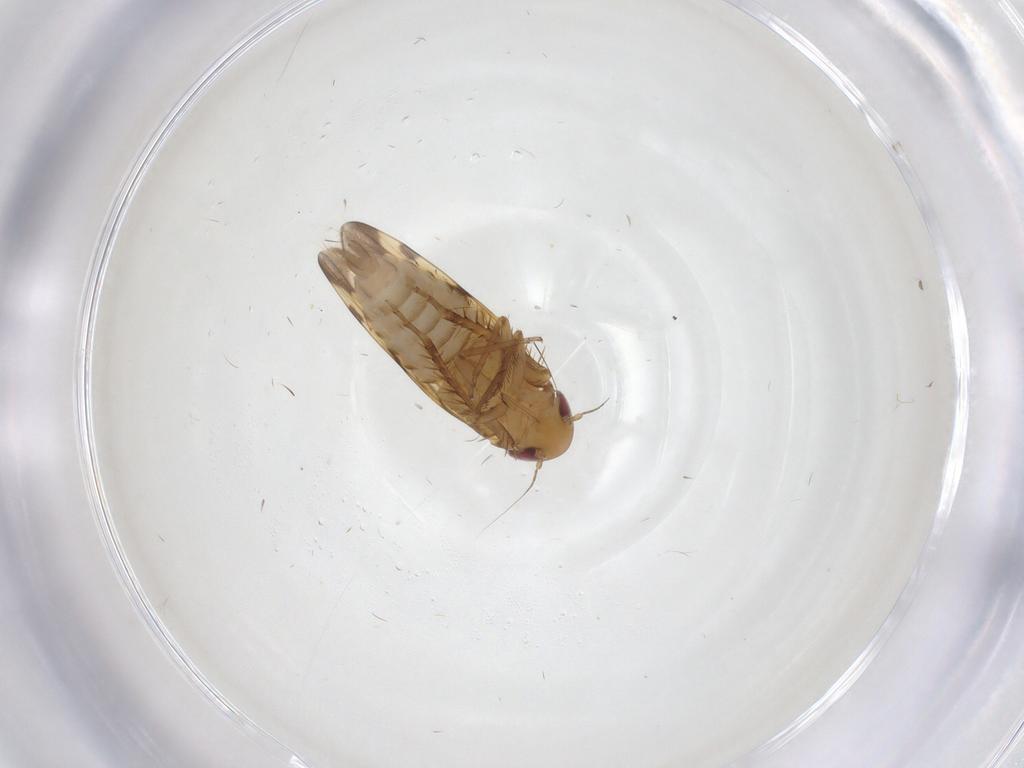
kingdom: Animalia
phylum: Arthropoda
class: Insecta
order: Hemiptera
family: Cicadellidae
